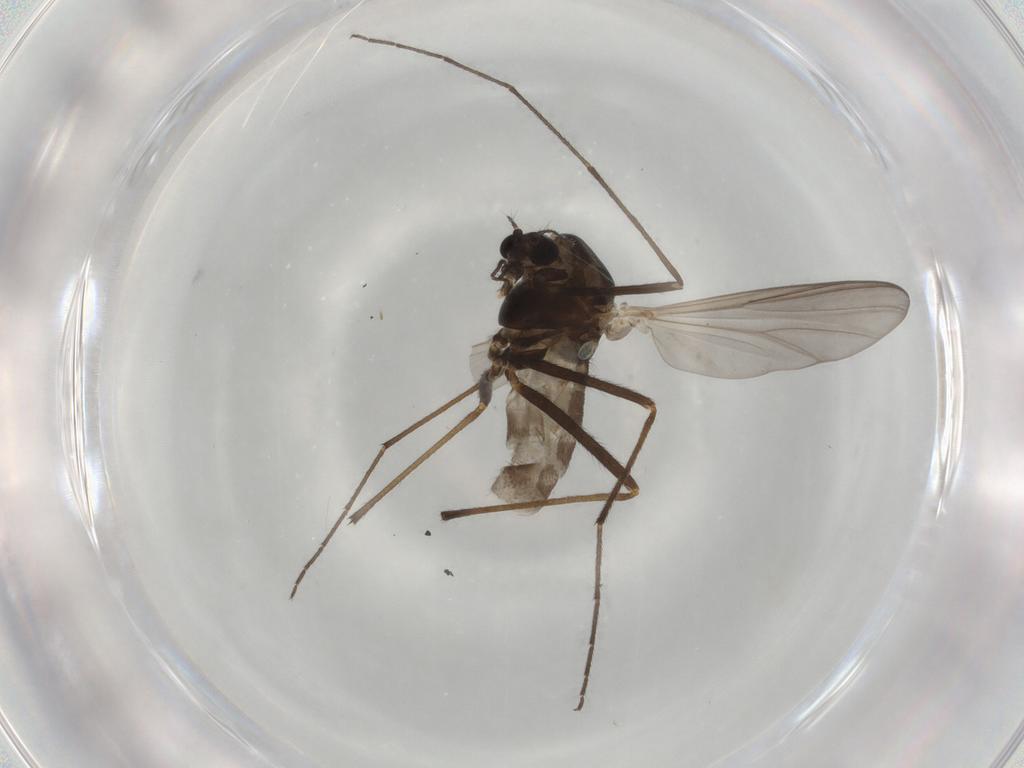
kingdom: Animalia
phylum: Arthropoda
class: Insecta
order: Diptera
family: Chironomidae
